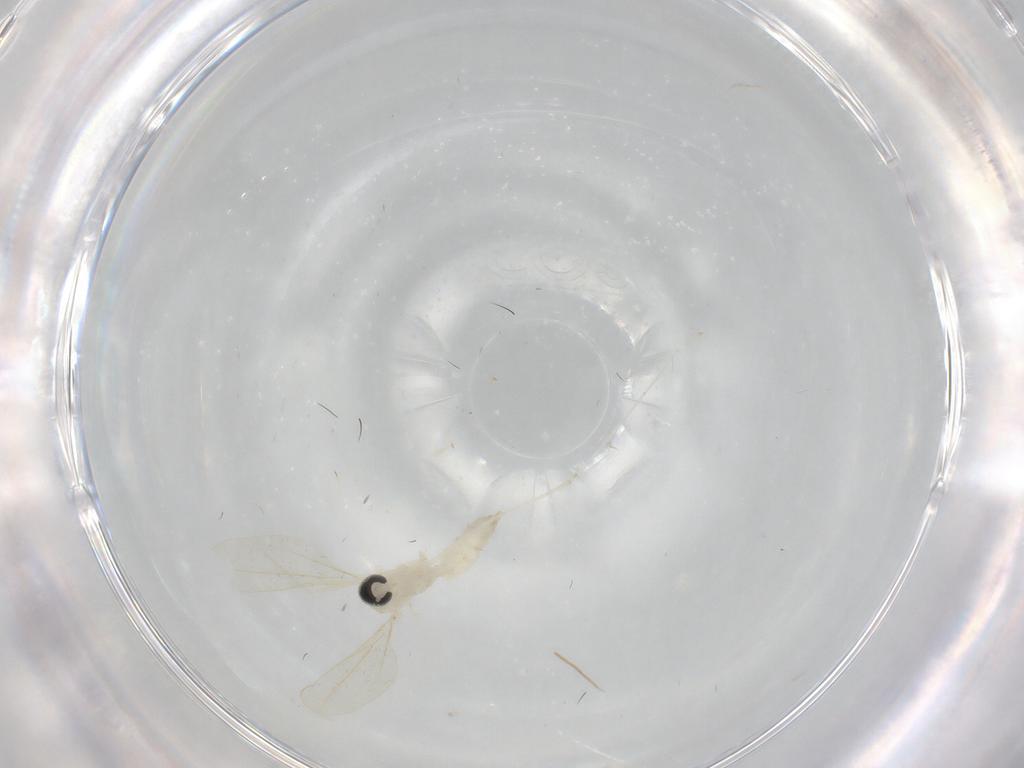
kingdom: Animalia
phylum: Arthropoda
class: Insecta
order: Diptera
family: Cecidomyiidae
